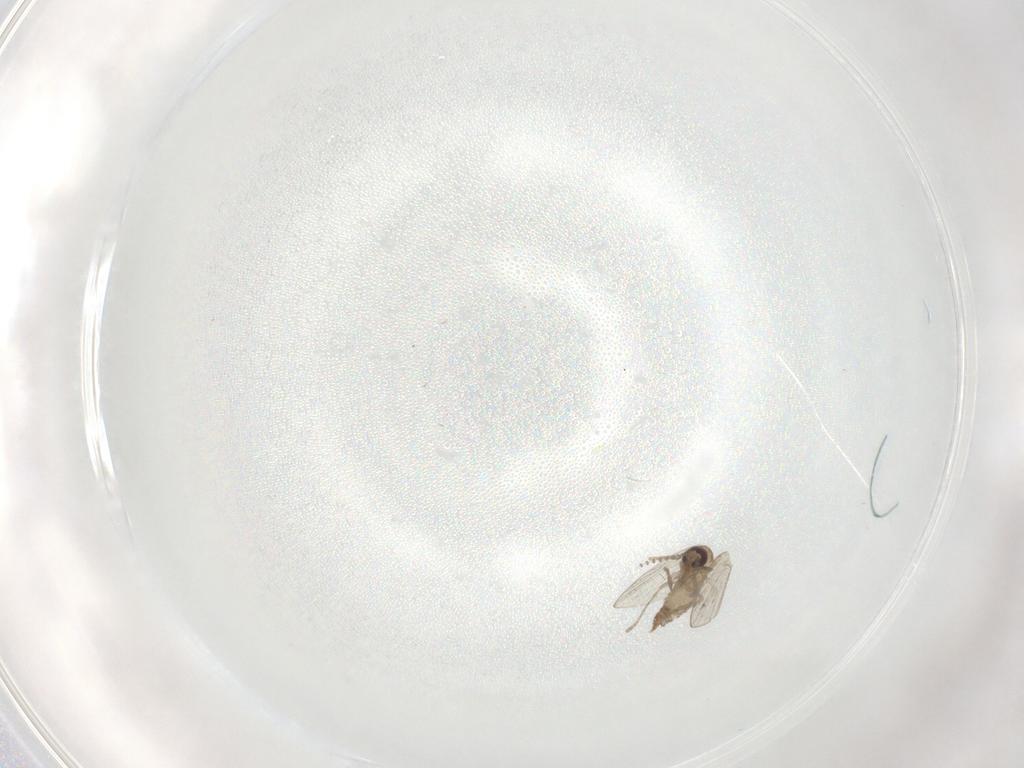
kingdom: Animalia
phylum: Arthropoda
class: Insecta
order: Diptera
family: Psychodidae
